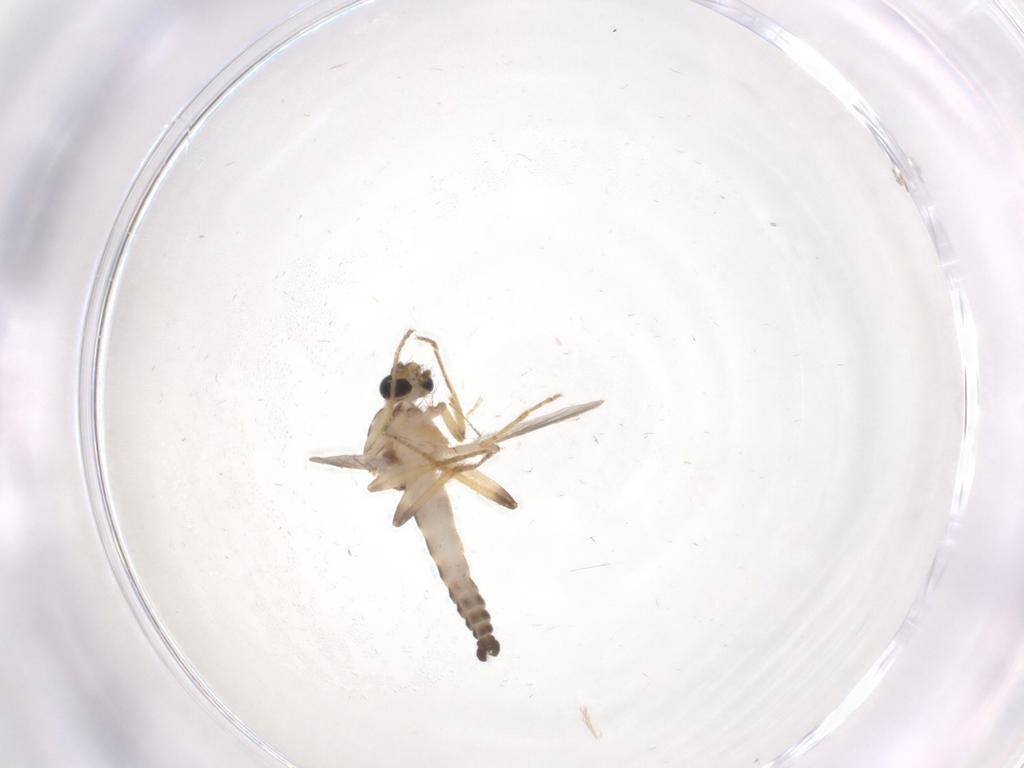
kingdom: Animalia
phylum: Arthropoda
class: Insecta
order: Diptera
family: Ceratopogonidae
